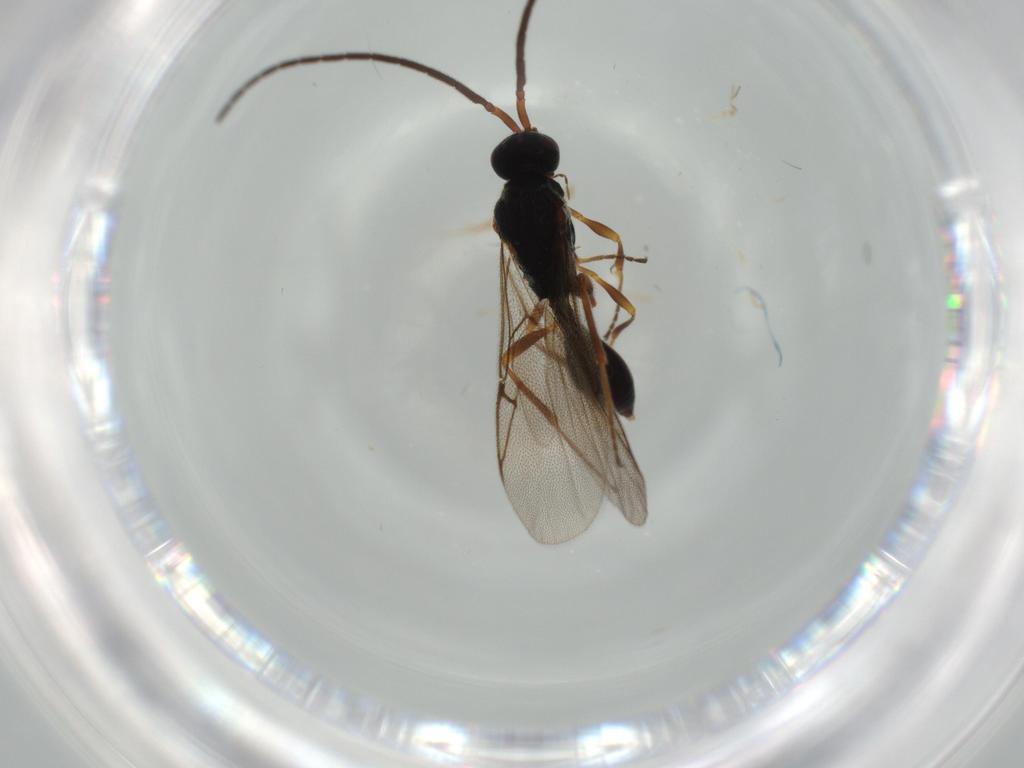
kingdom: Animalia
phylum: Arthropoda
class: Insecta
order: Hymenoptera
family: Ichneumonidae
